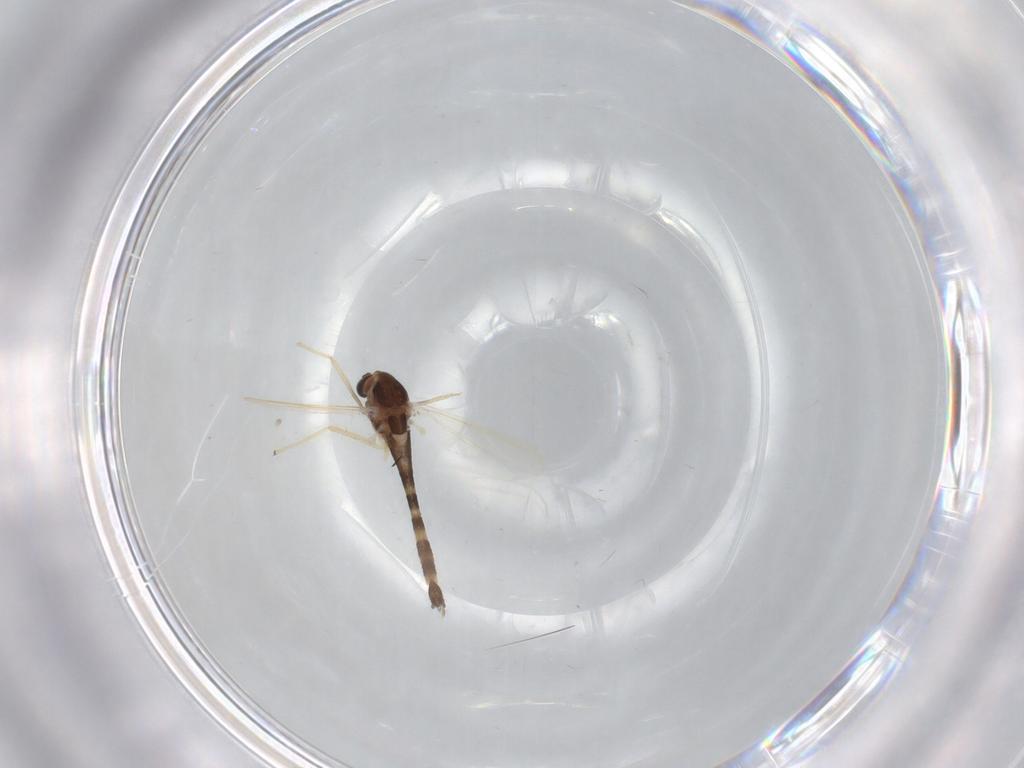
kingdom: Animalia
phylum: Arthropoda
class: Insecta
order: Diptera
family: Chironomidae
